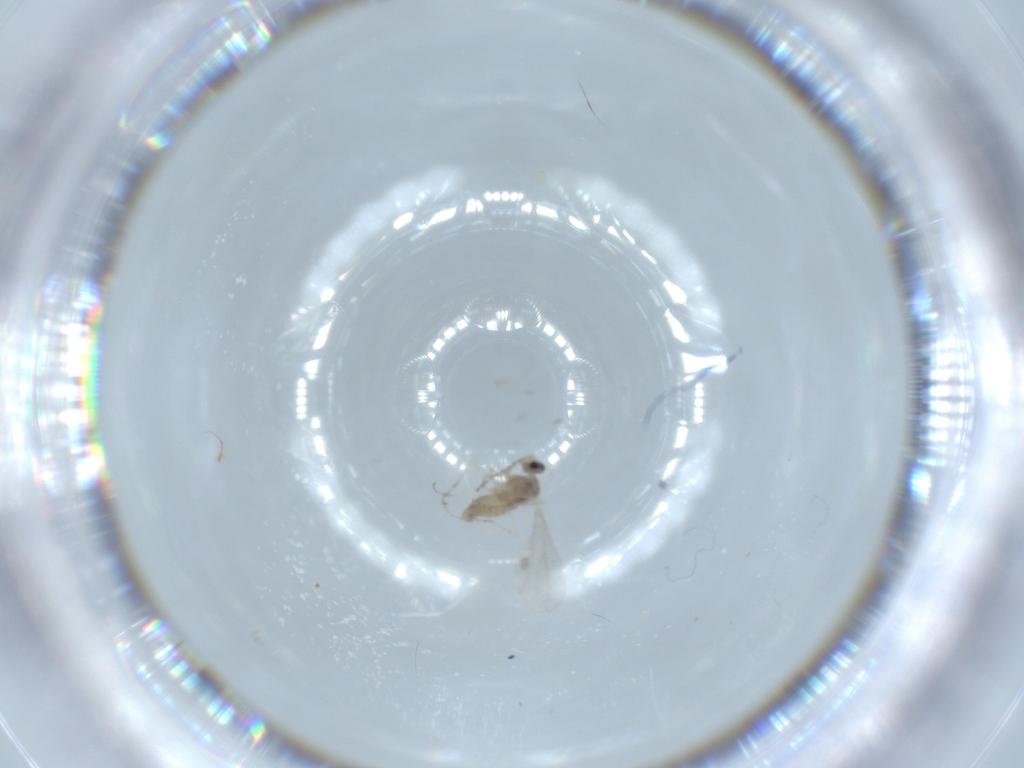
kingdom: Animalia
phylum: Arthropoda
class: Insecta
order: Diptera
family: Cecidomyiidae
